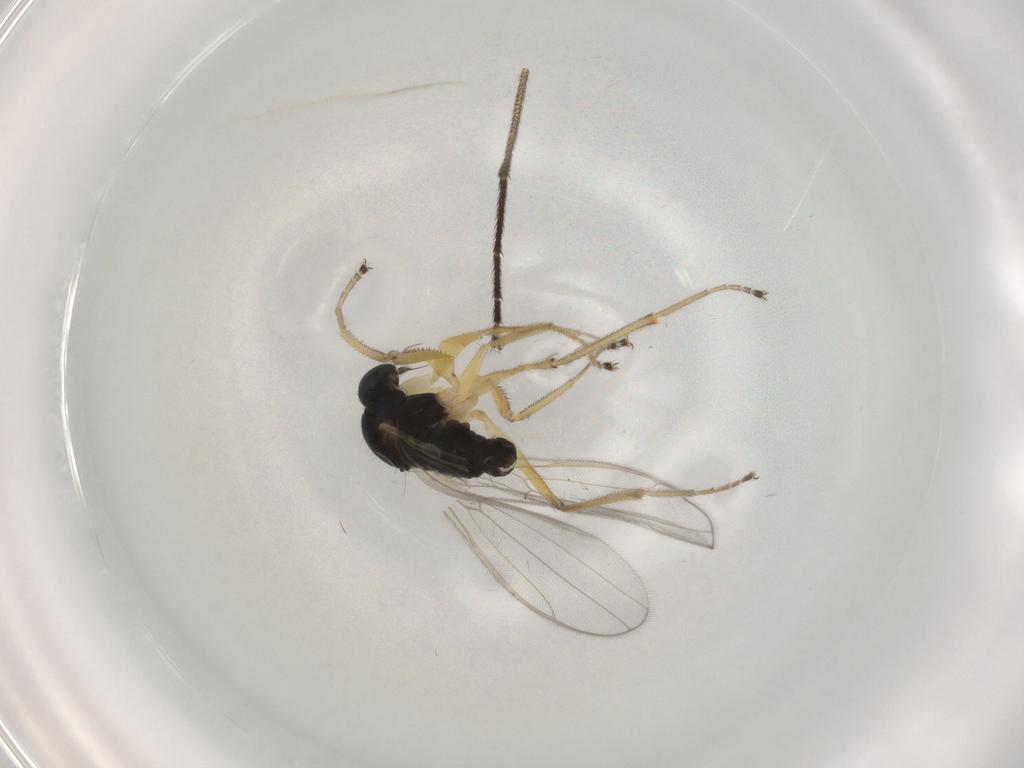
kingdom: Animalia
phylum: Arthropoda
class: Insecta
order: Diptera
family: Hybotidae
